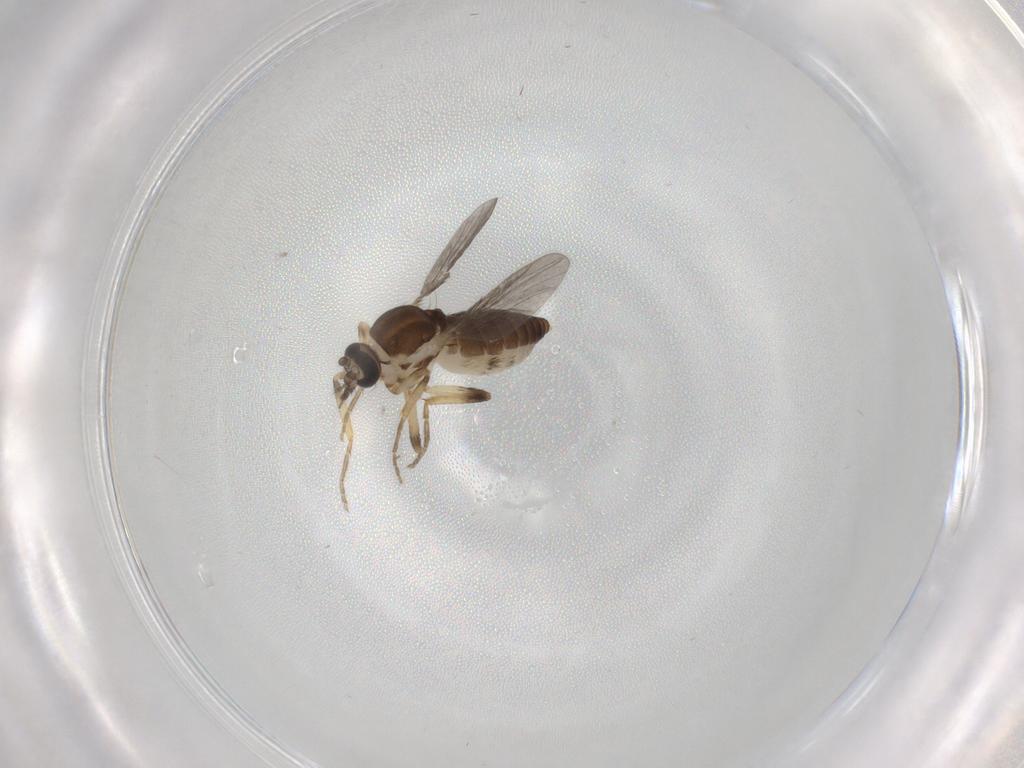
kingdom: Animalia
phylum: Arthropoda
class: Insecta
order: Diptera
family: Ceratopogonidae
